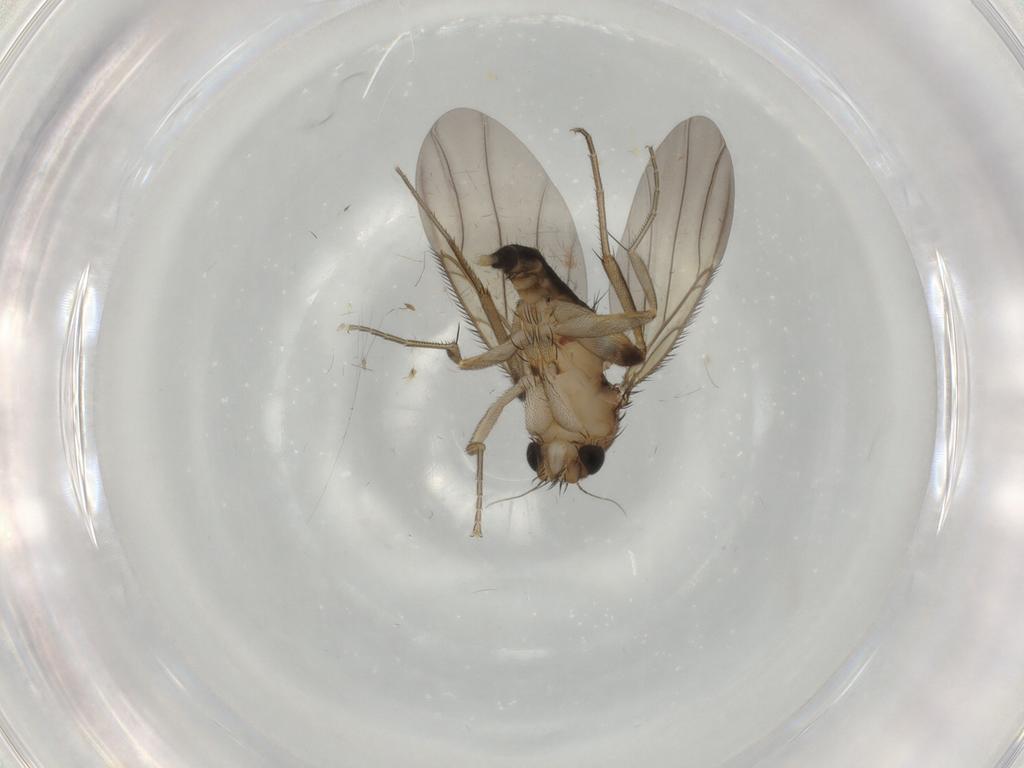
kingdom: Animalia
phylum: Arthropoda
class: Insecta
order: Diptera
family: Phoridae
